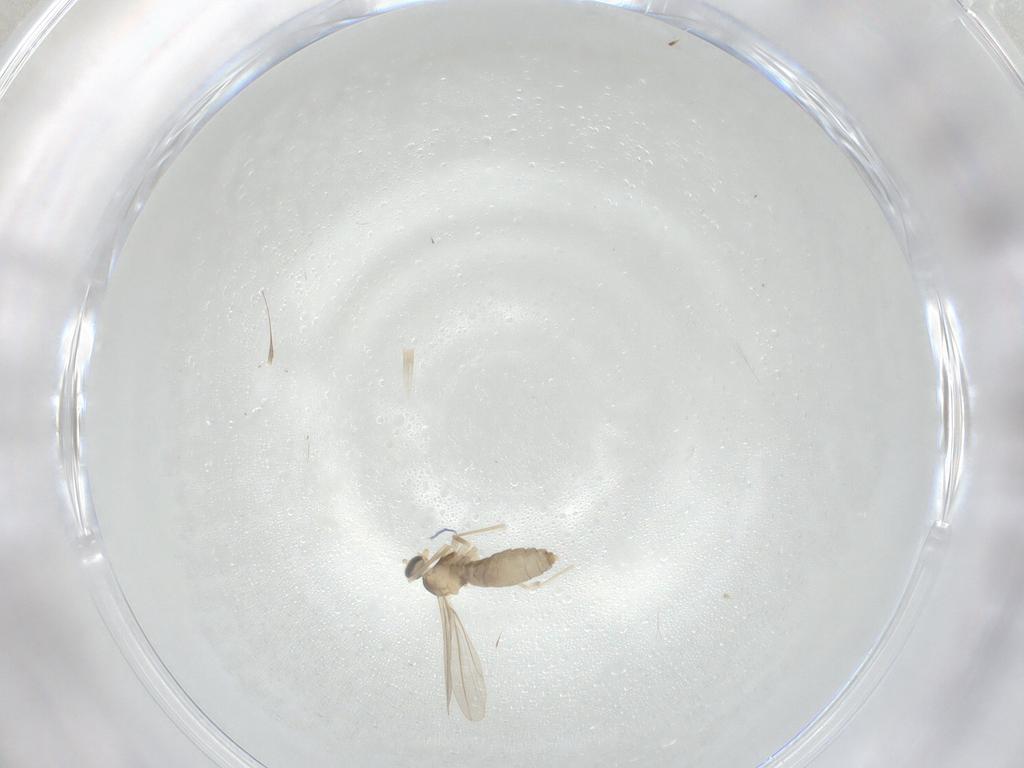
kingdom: Animalia
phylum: Arthropoda
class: Insecta
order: Diptera
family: Cecidomyiidae
